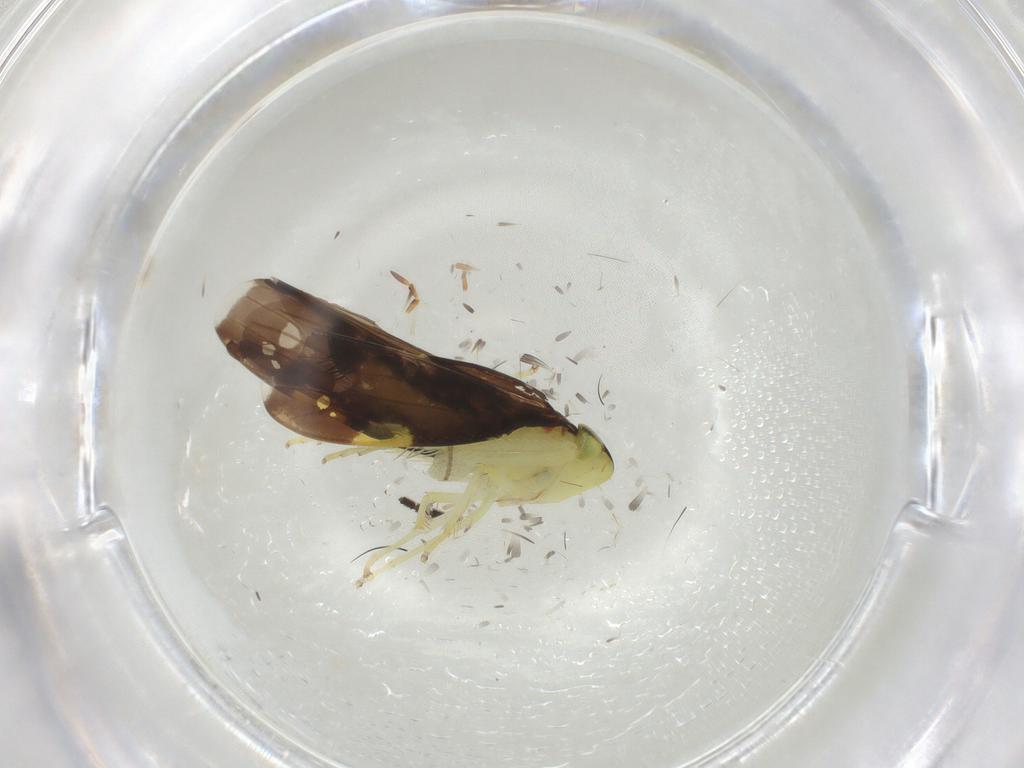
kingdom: Animalia
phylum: Arthropoda
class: Insecta
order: Hemiptera
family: Cicadellidae
